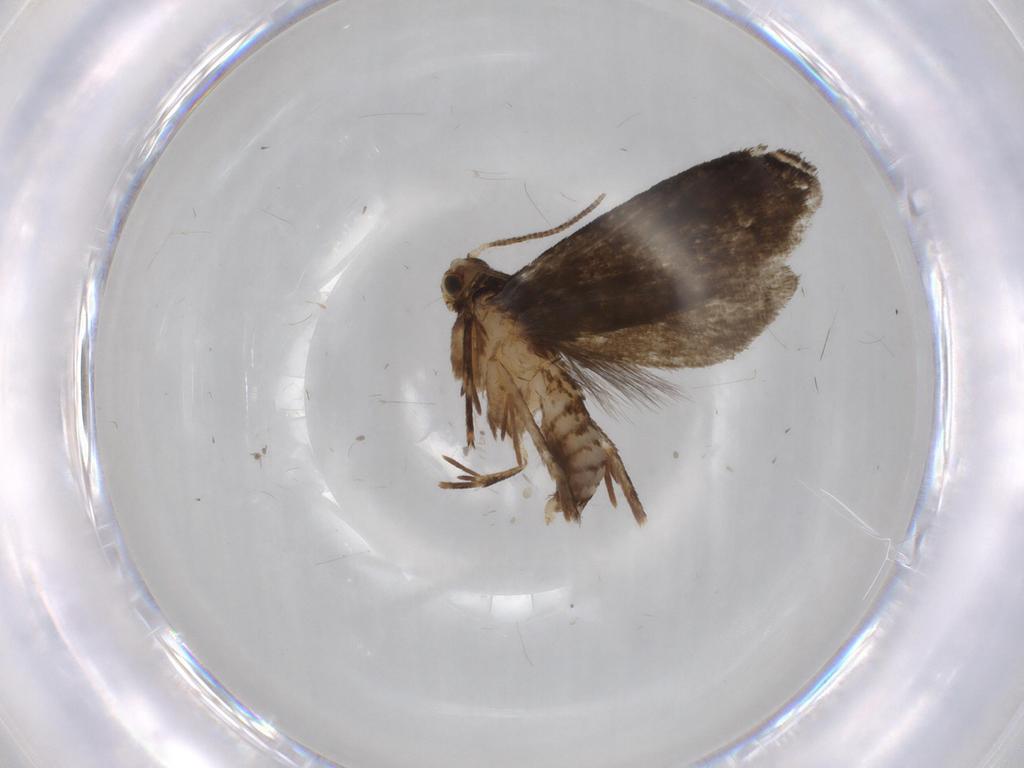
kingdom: Animalia
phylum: Arthropoda
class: Insecta
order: Lepidoptera
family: Tineidae
